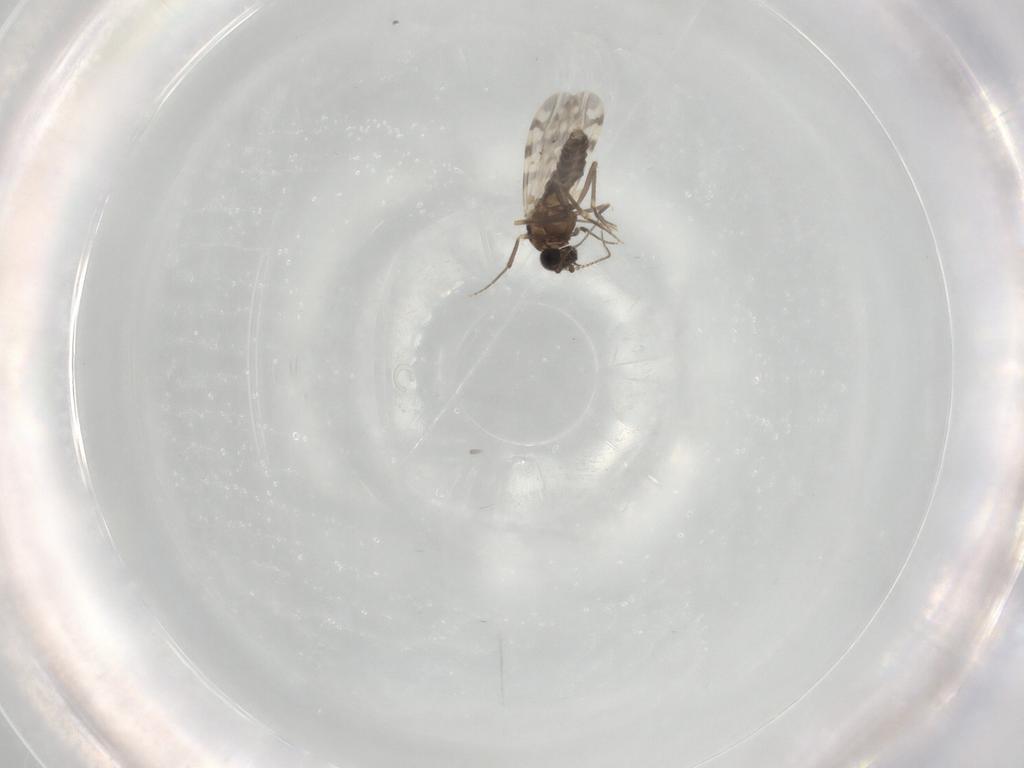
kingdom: Animalia
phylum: Arthropoda
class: Insecta
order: Diptera
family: Ceratopogonidae
